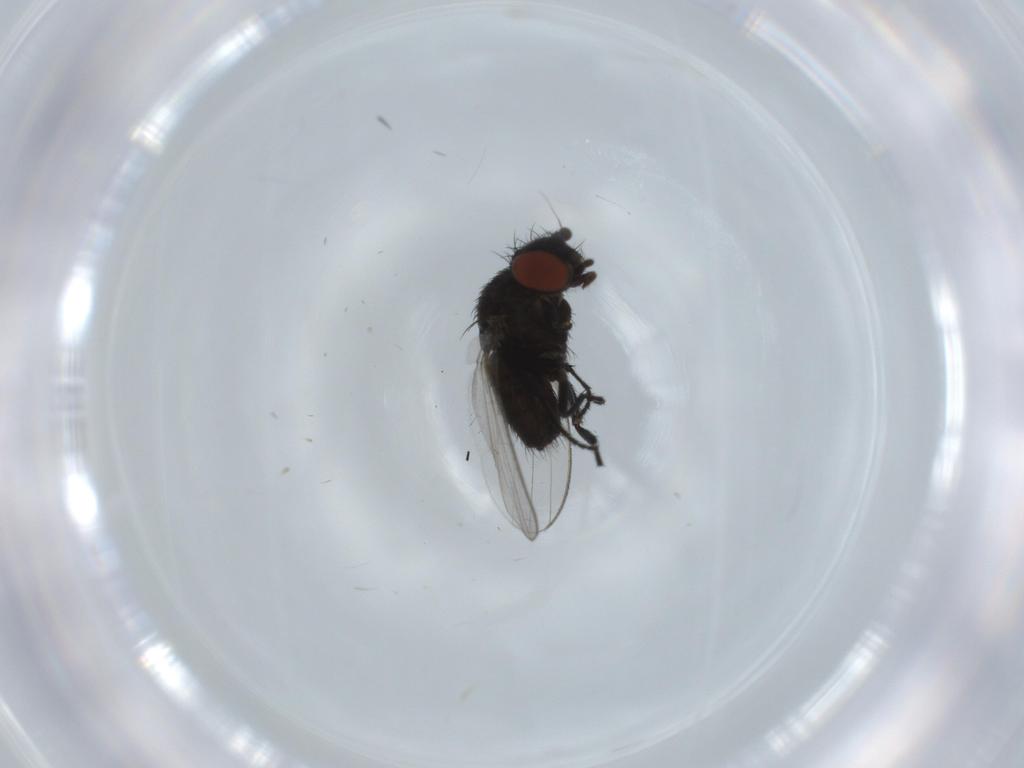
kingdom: Animalia
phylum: Arthropoda
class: Insecta
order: Diptera
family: Milichiidae
